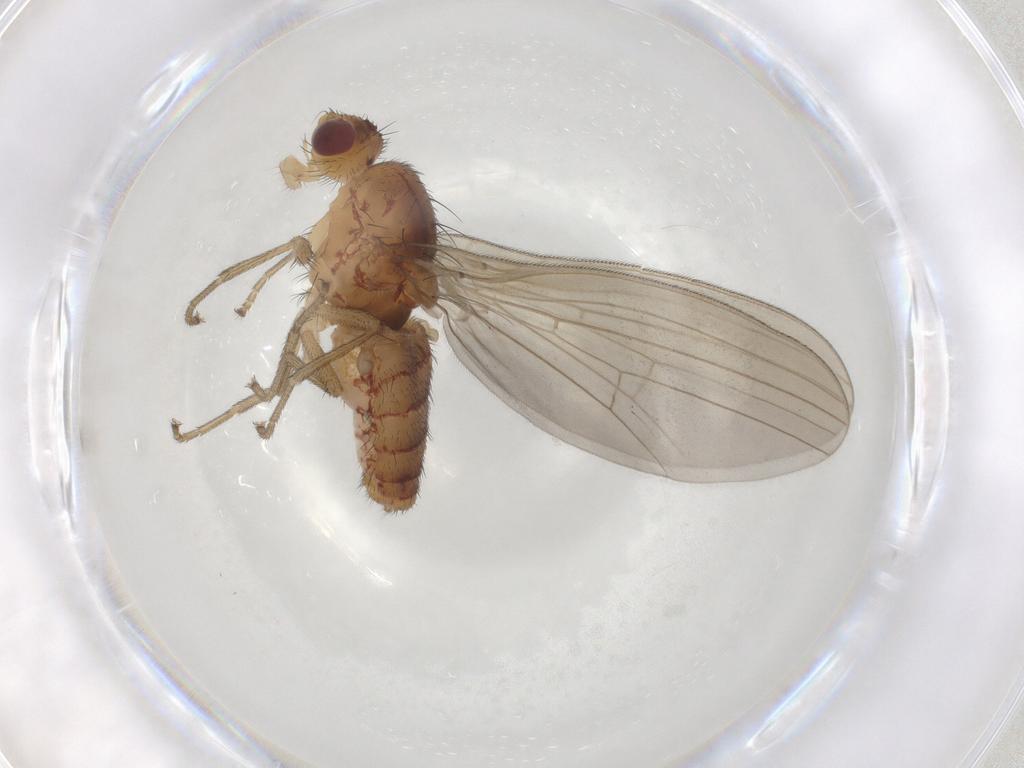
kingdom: Animalia
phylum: Arthropoda
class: Insecta
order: Diptera
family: Natalimyzidae
